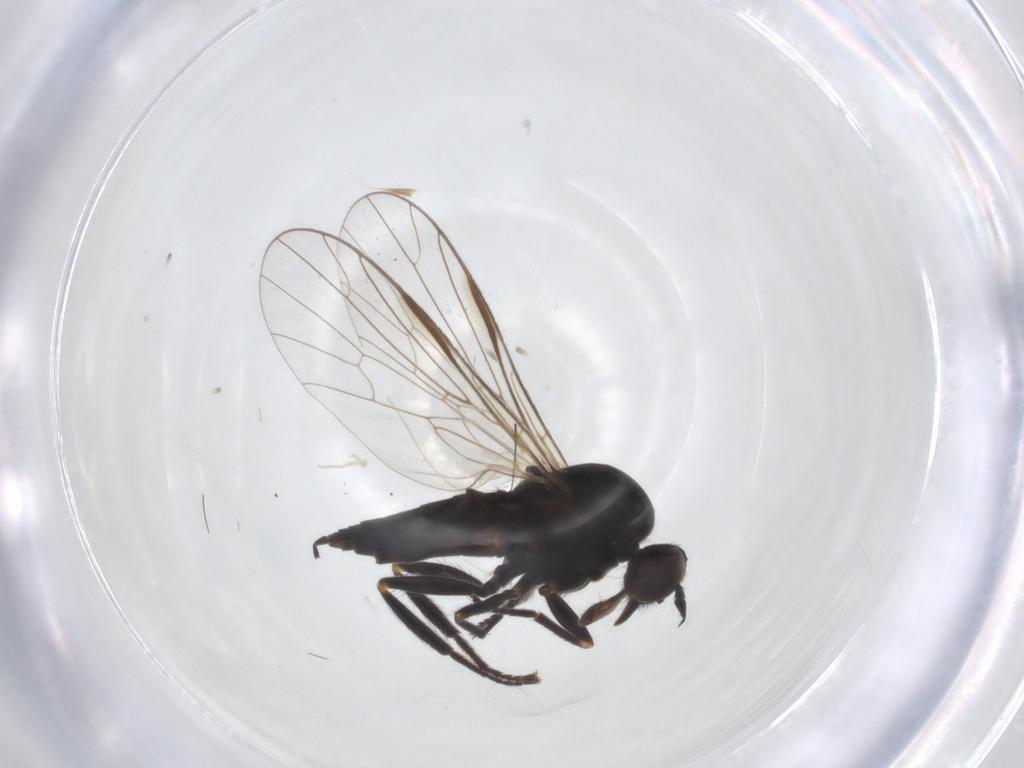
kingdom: Animalia
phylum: Arthropoda
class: Insecta
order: Diptera
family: Empididae
